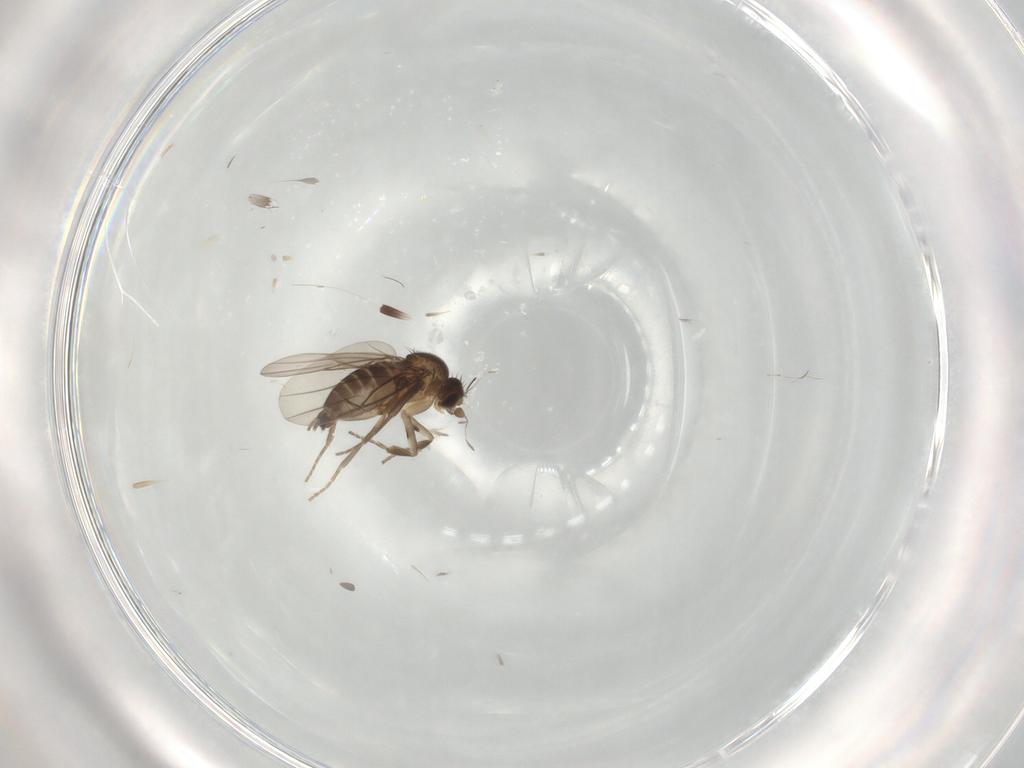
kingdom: Animalia
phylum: Arthropoda
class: Insecta
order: Diptera
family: Phoridae
